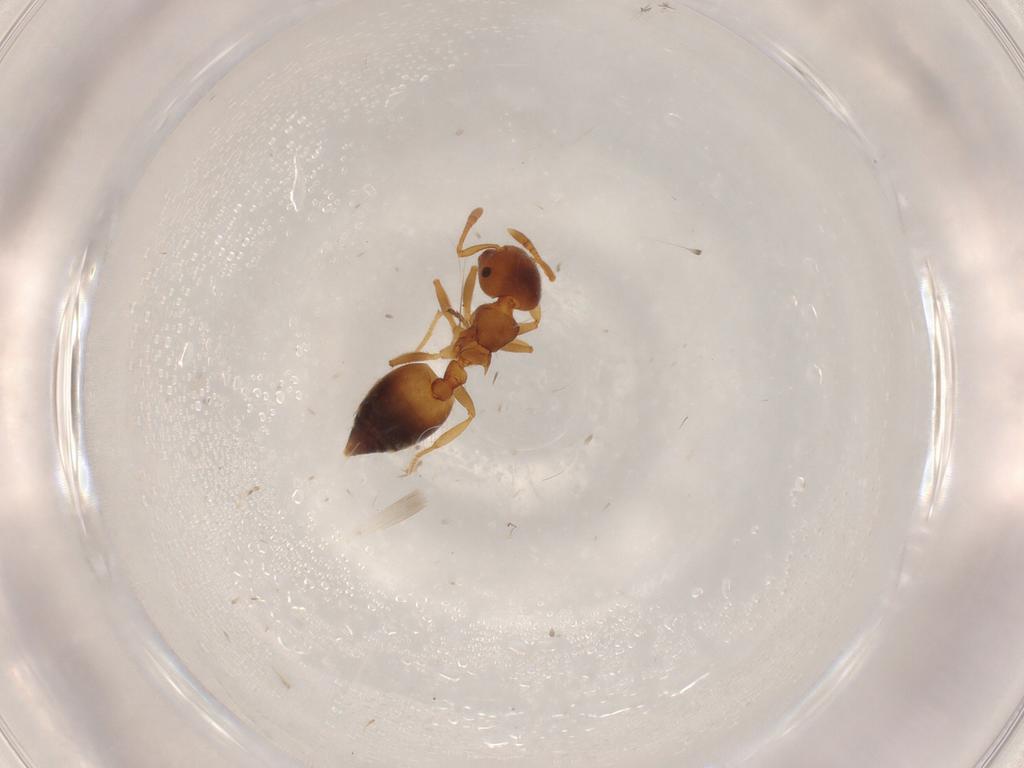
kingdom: Animalia
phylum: Arthropoda
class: Insecta
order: Hymenoptera
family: Formicidae
